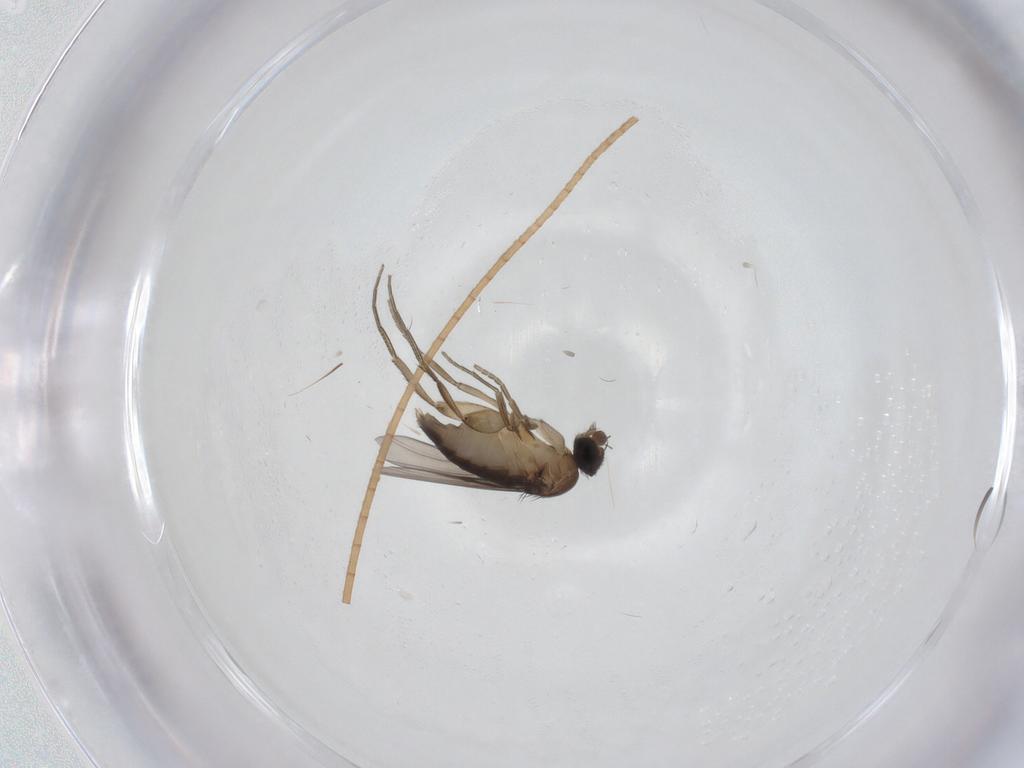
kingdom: Animalia
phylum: Arthropoda
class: Insecta
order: Diptera
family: Phoridae
